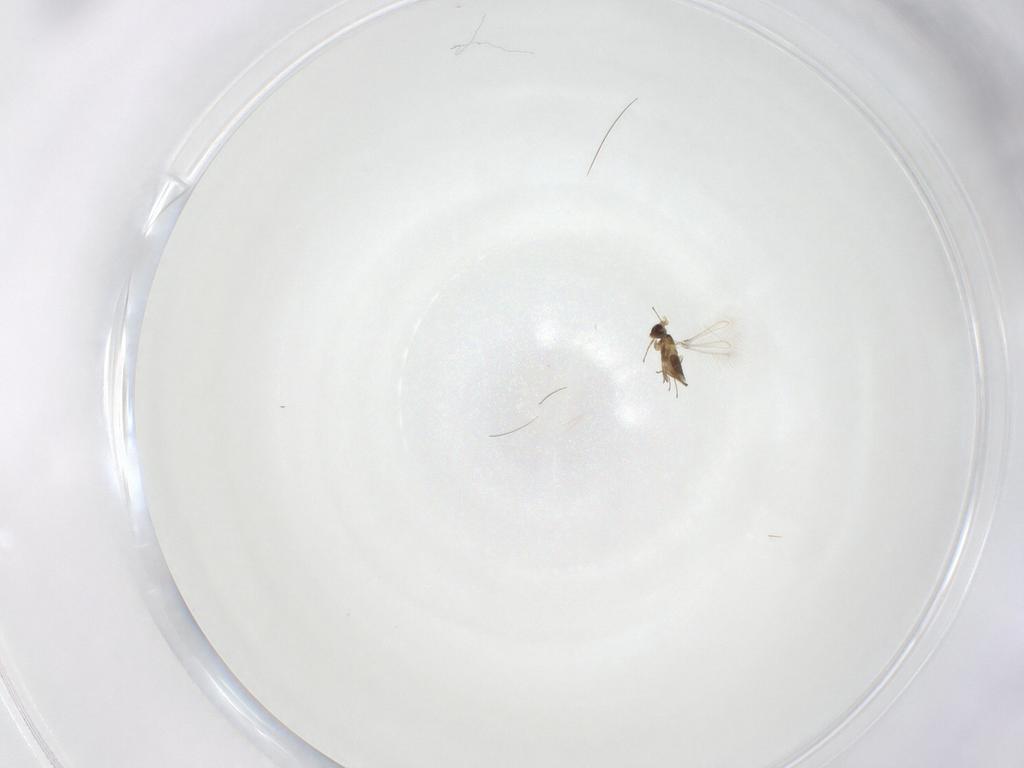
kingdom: Animalia
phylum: Arthropoda
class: Insecta
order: Hymenoptera
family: Mymaridae
